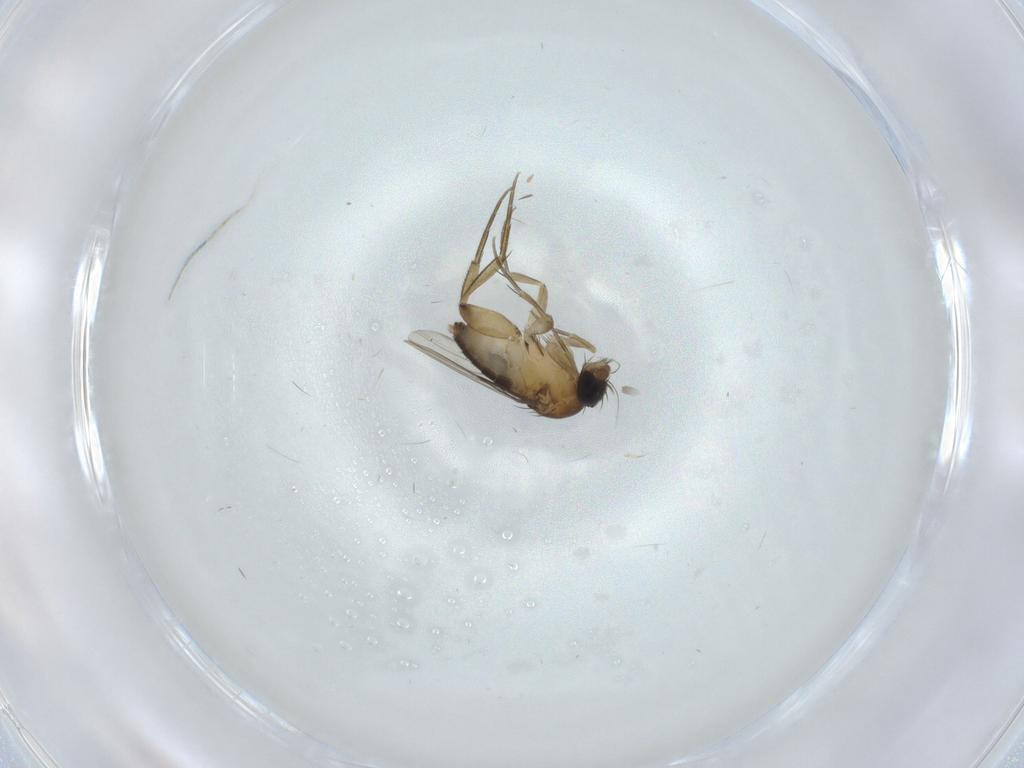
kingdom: Animalia
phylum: Arthropoda
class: Insecta
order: Diptera
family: Phoridae
